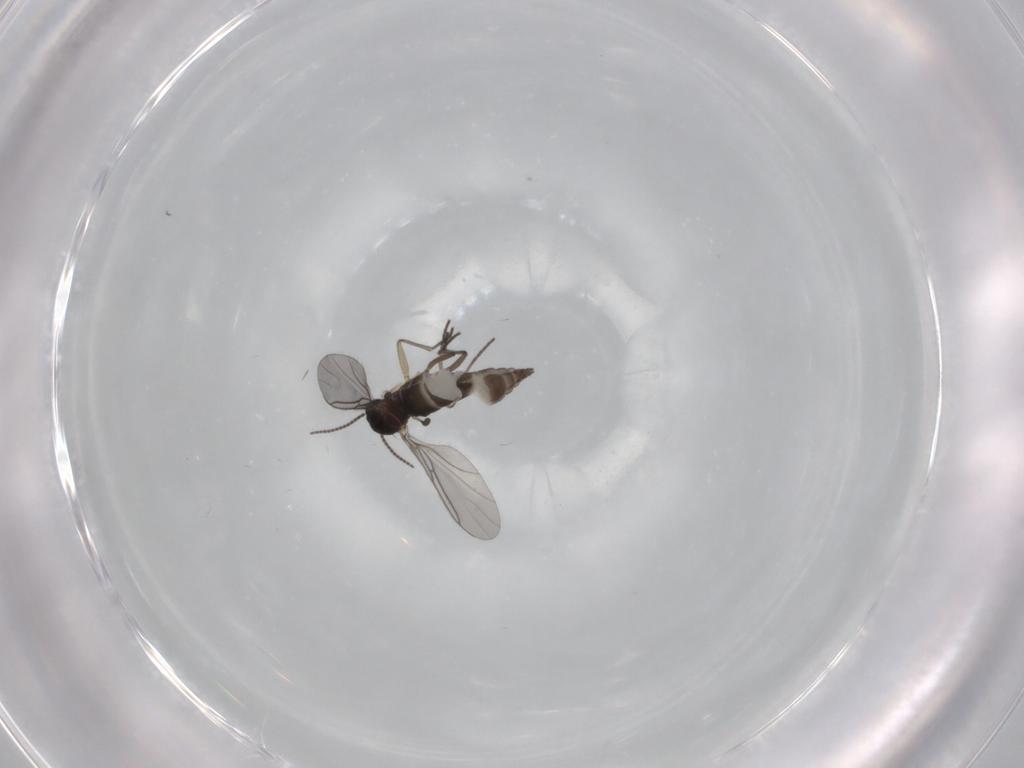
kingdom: Animalia
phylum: Arthropoda
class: Insecta
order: Diptera
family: Sciaridae
